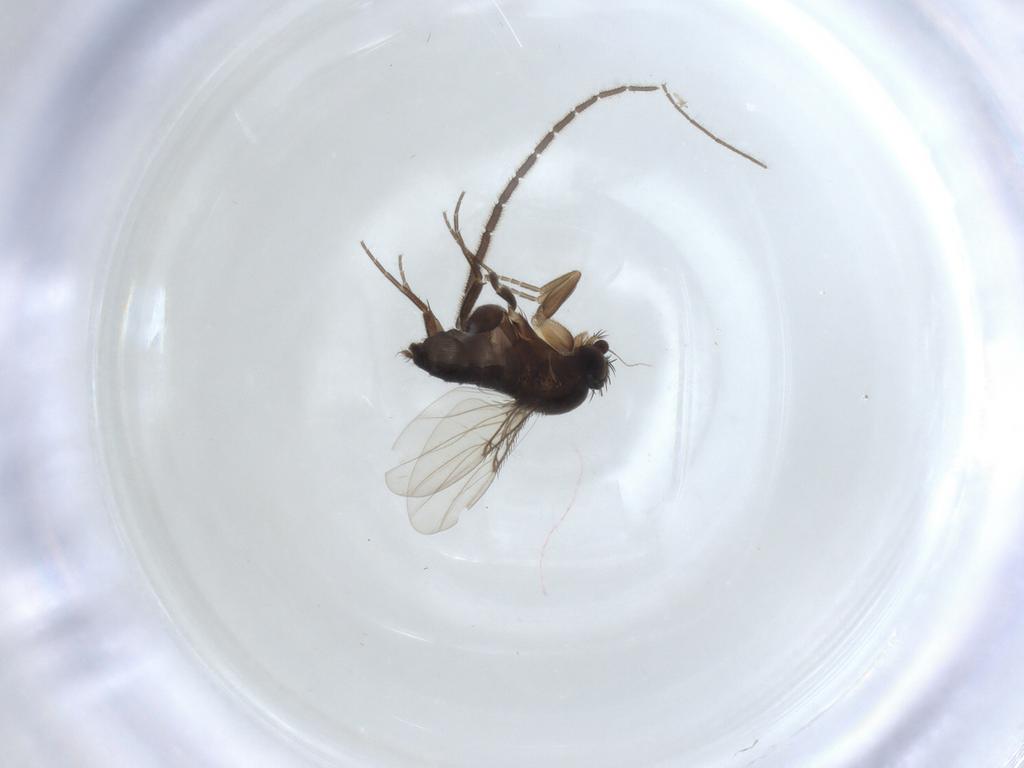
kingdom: Animalia
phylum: Arthropoda
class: Insecta
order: Diptera
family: Phoridae
